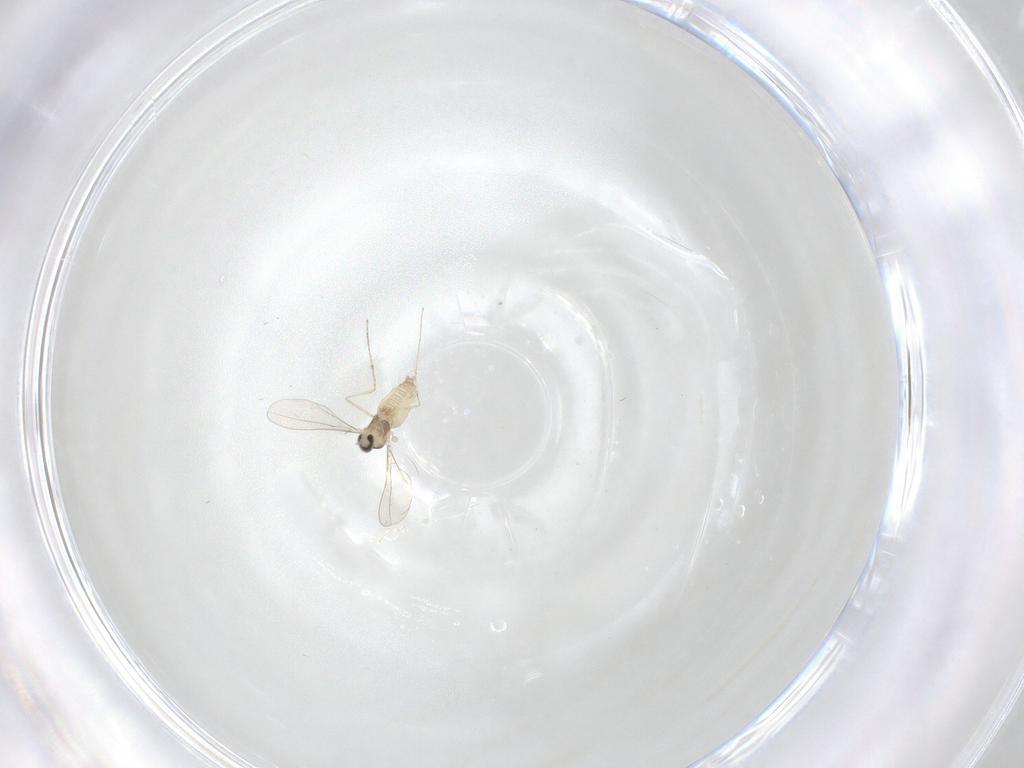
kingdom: Animalia
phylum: Arthropoda
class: Insecta
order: Diptera
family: Cecidomyiidae
